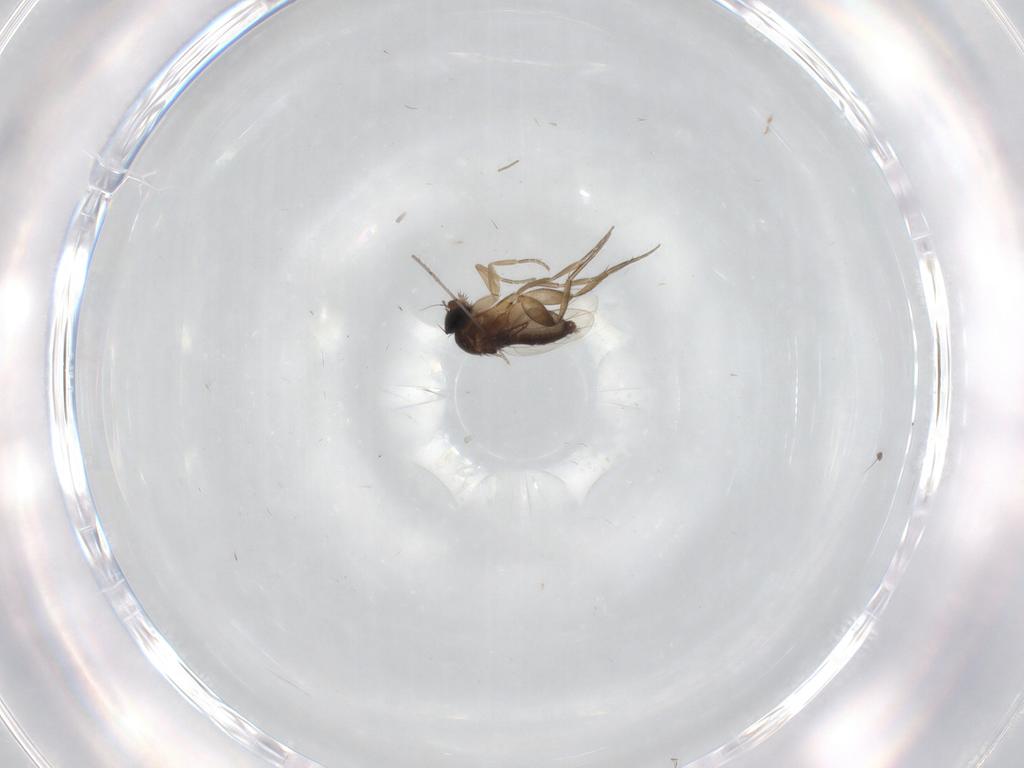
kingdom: Animalia
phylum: Arthropoda
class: Insecta
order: Diptera
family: Phoridae
